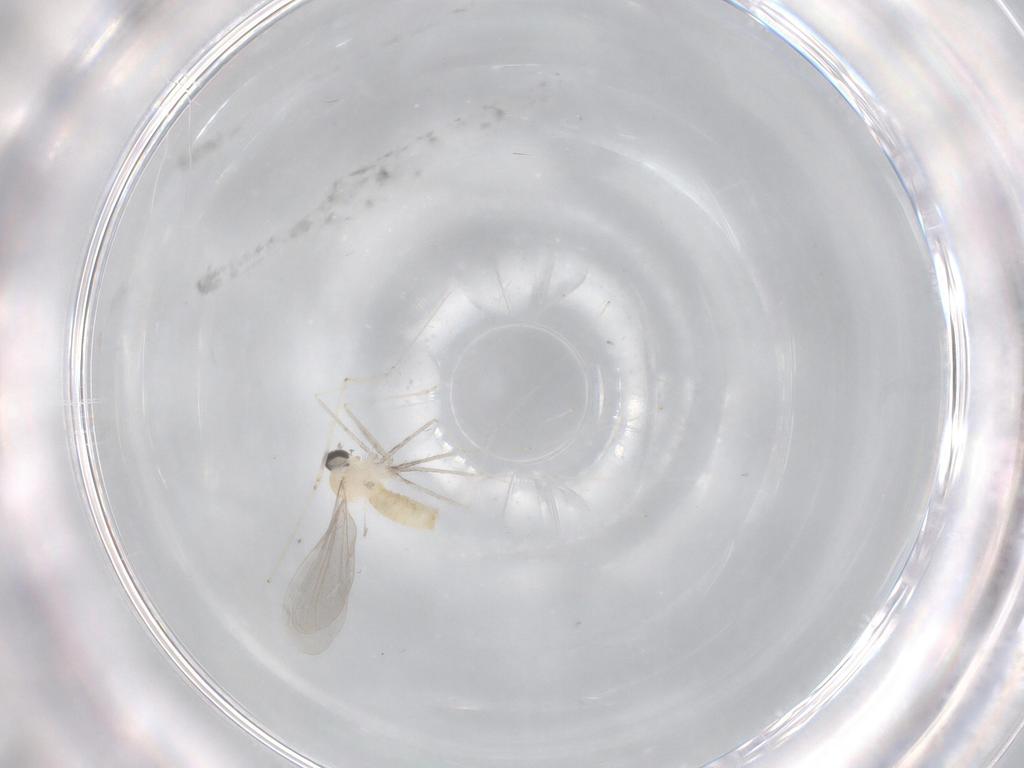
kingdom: Animalia
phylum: Arthropoda
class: Insecta
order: Diptera
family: Cecidomyiidae
